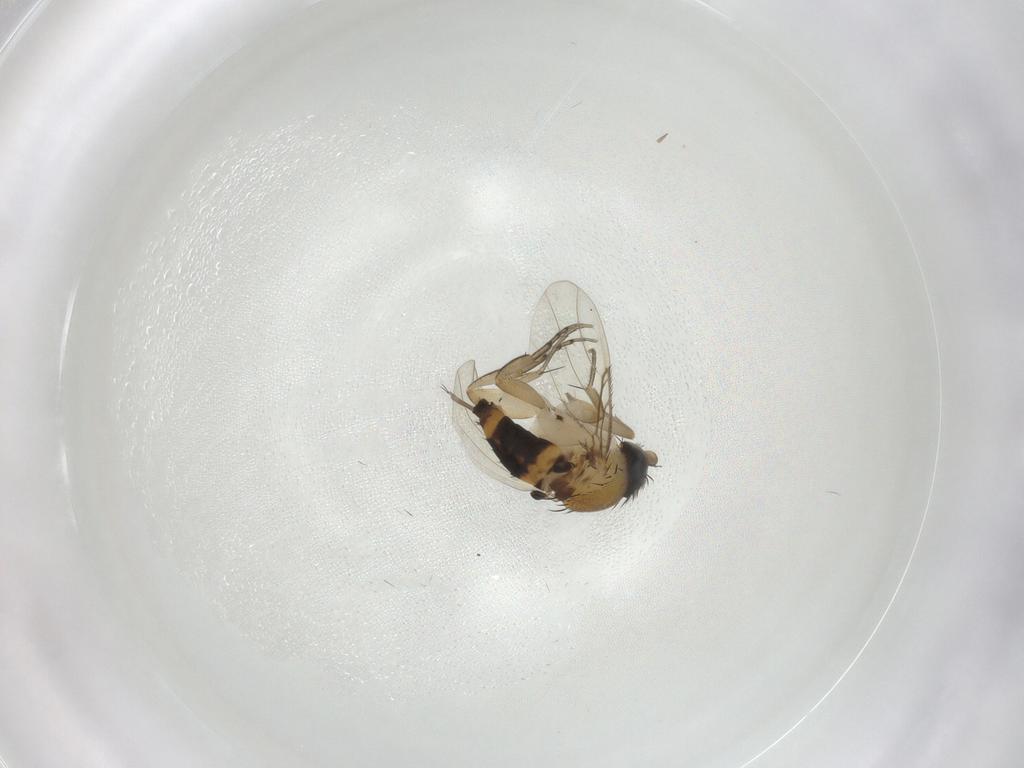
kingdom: Animalia
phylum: Arthropoda
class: Insecta
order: Diptera
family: Phoridae
